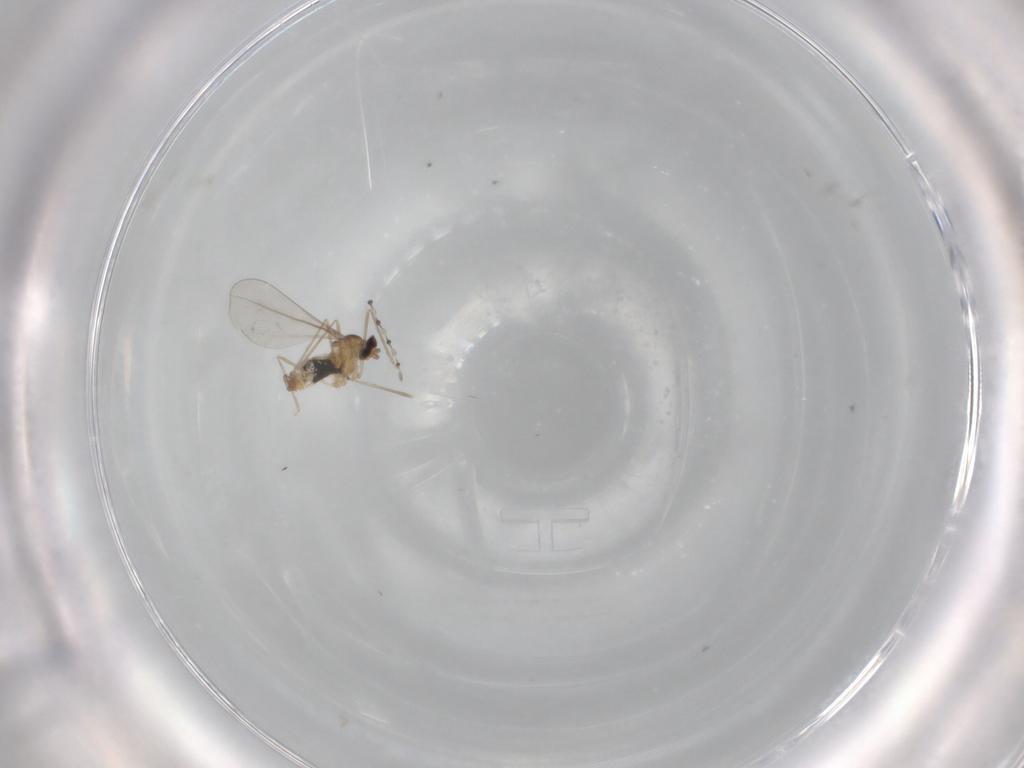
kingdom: Animalia
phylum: Arthropoda
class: Insecta
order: Diptera
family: Cecidomyiidae
